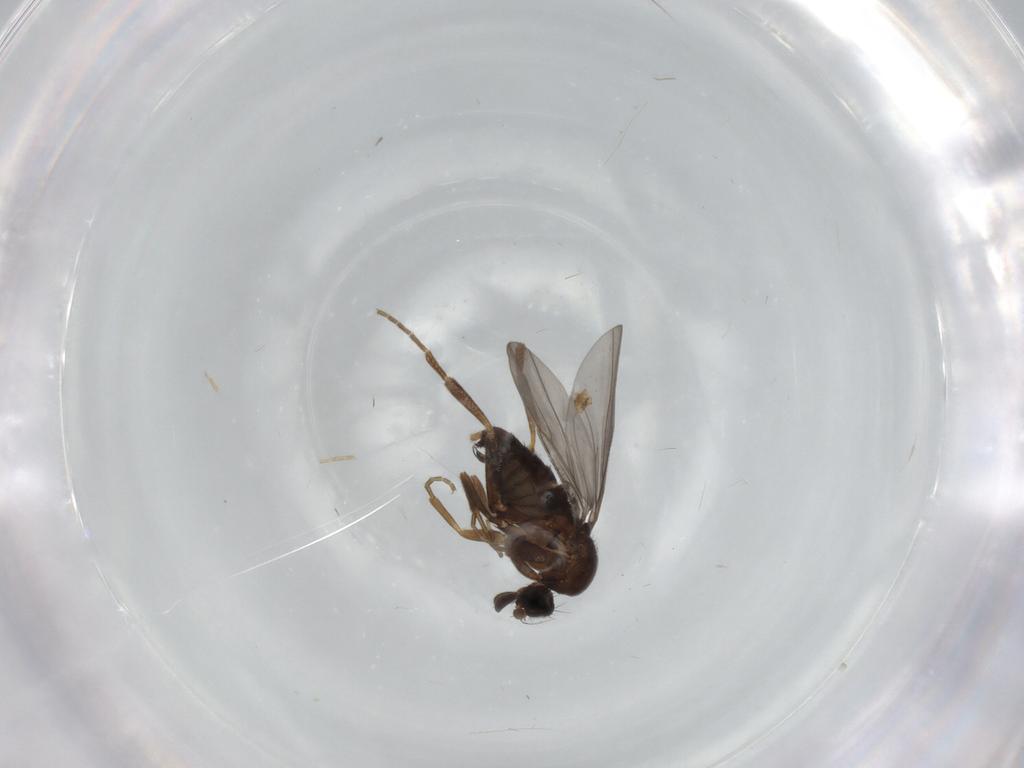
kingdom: Animalia
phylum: Arthropoda
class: Insecta
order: Diptera
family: Phoridae
